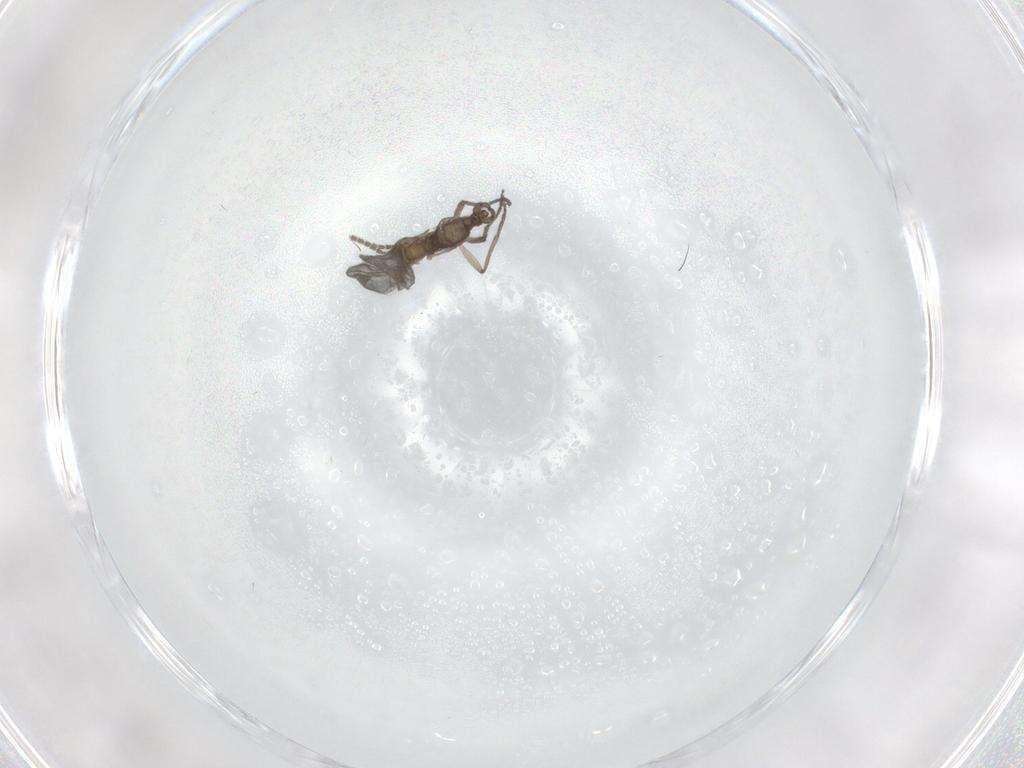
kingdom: Animalia
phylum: Arthropoda
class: Insecta
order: Diptera
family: Sciaridae
